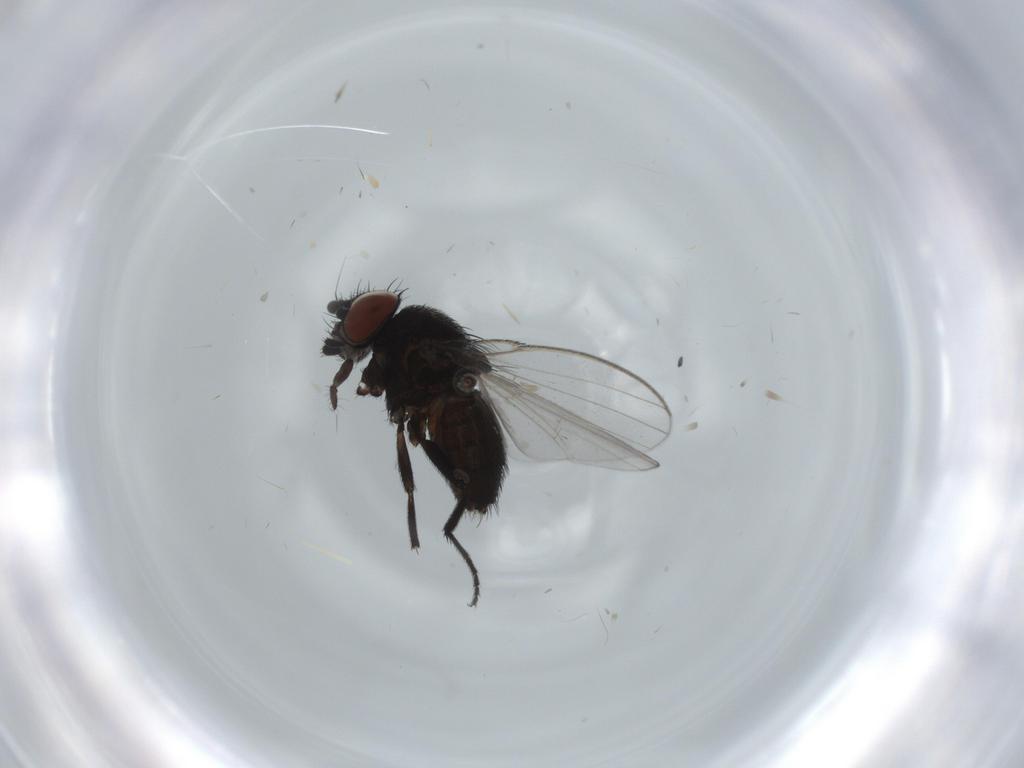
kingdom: Animalia
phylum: Arthropoda
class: Insecta
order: Diptera
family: Milichiidae
